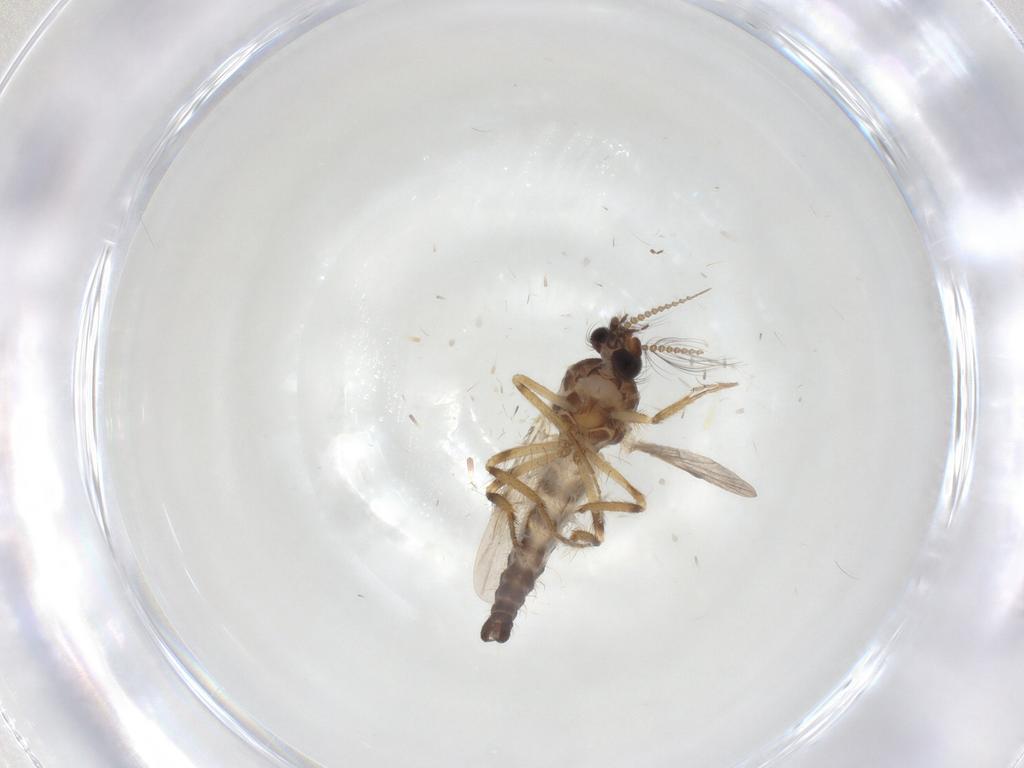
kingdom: Animalia
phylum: Arthropoda
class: Insecta
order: Diptera
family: Ceratopogonidae
